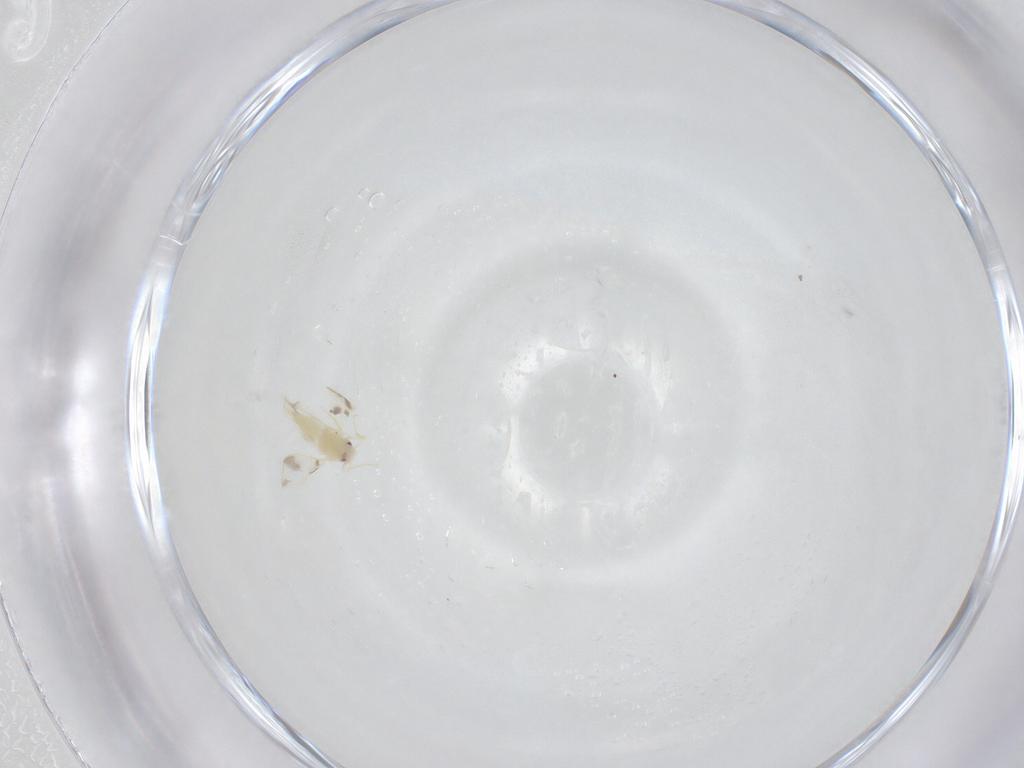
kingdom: Animalia
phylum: Arthropoda
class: Insecta
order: Hemiptera
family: Aleyrodidae
